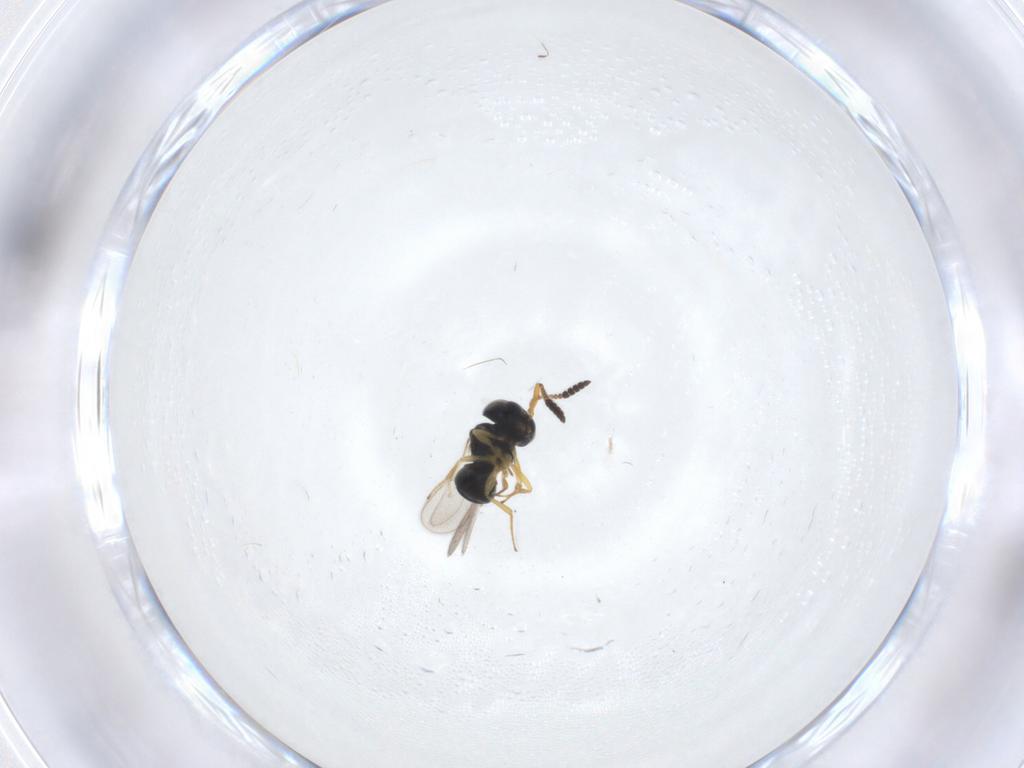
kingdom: Animalia
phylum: Arthropoda
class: Insecta
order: Hymenoptera
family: Scelionidae
